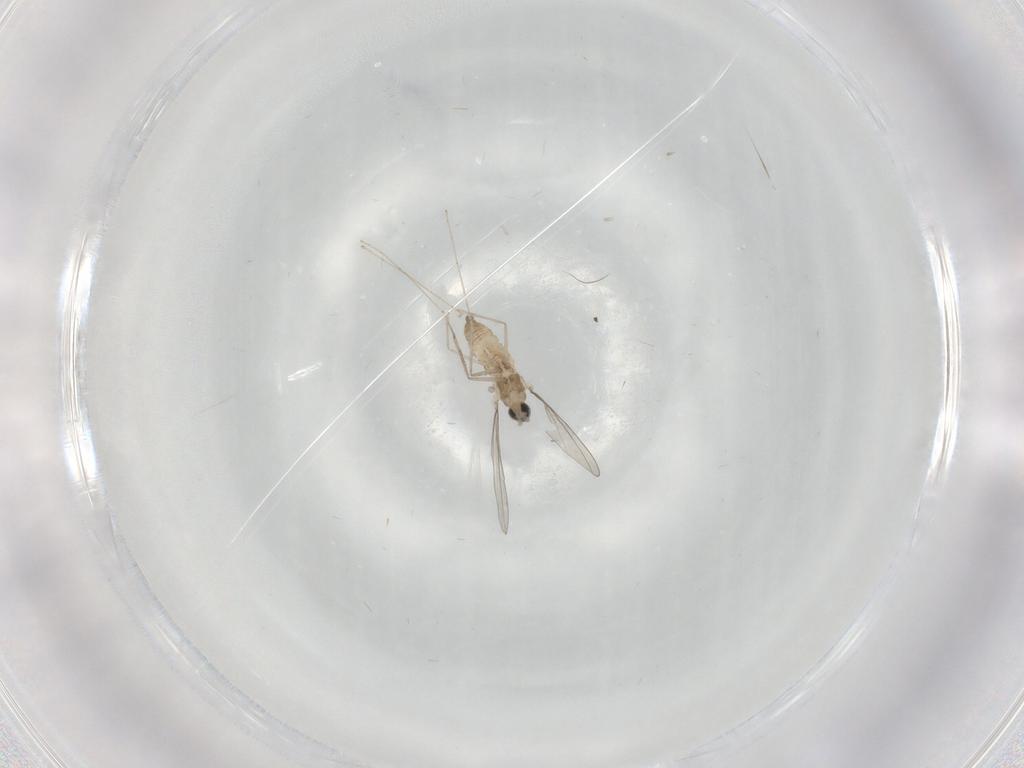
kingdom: Animalia
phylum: Arthropoda
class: Insecta
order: Diptera
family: Cecidomyiidae
